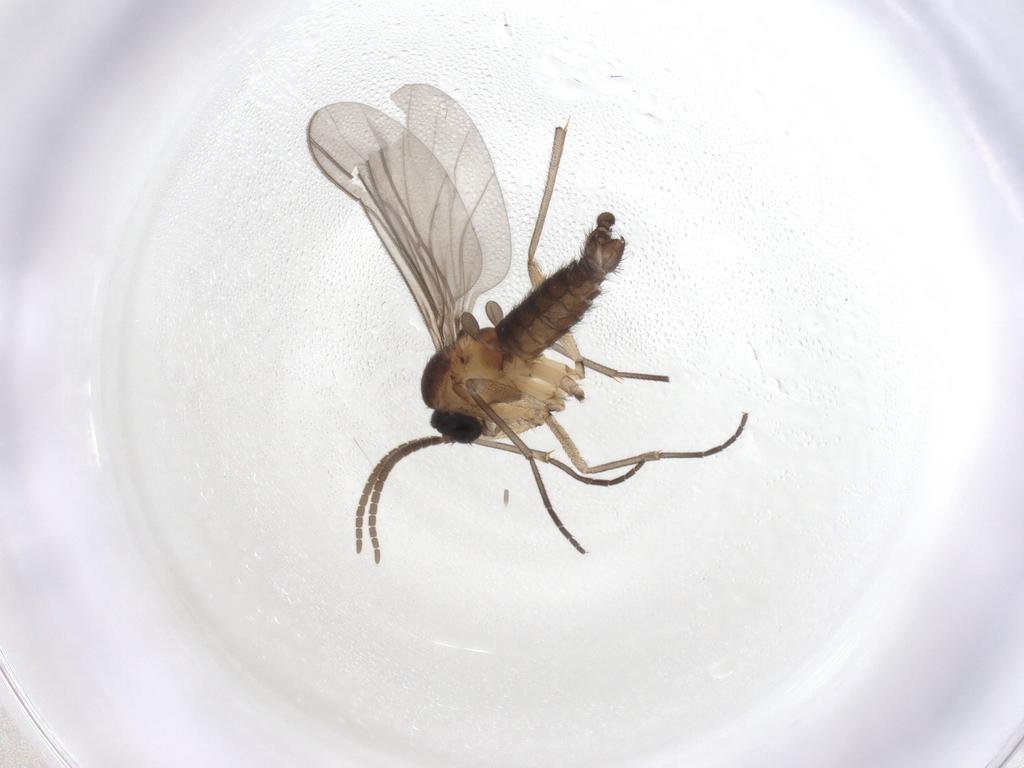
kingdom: Animalia
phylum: Arthropoda
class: Insecta
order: Diptera
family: Sciaridae
